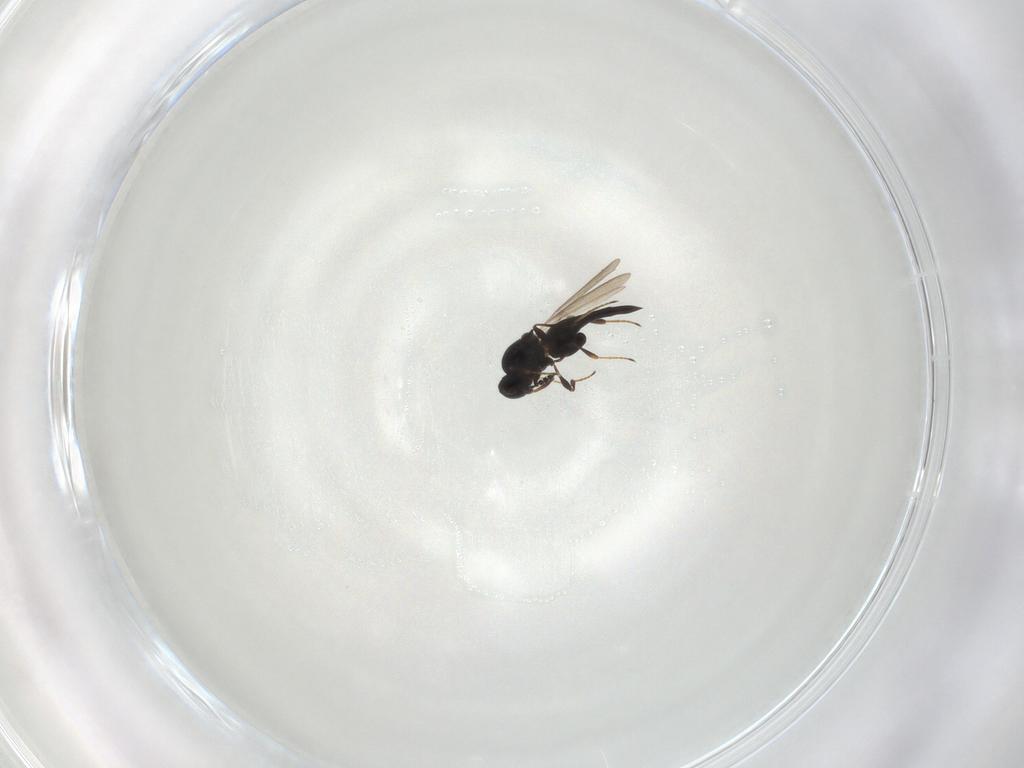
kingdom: Animalia
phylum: Arthropoda
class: Insecta
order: Hymenoptera
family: Platygastridae
